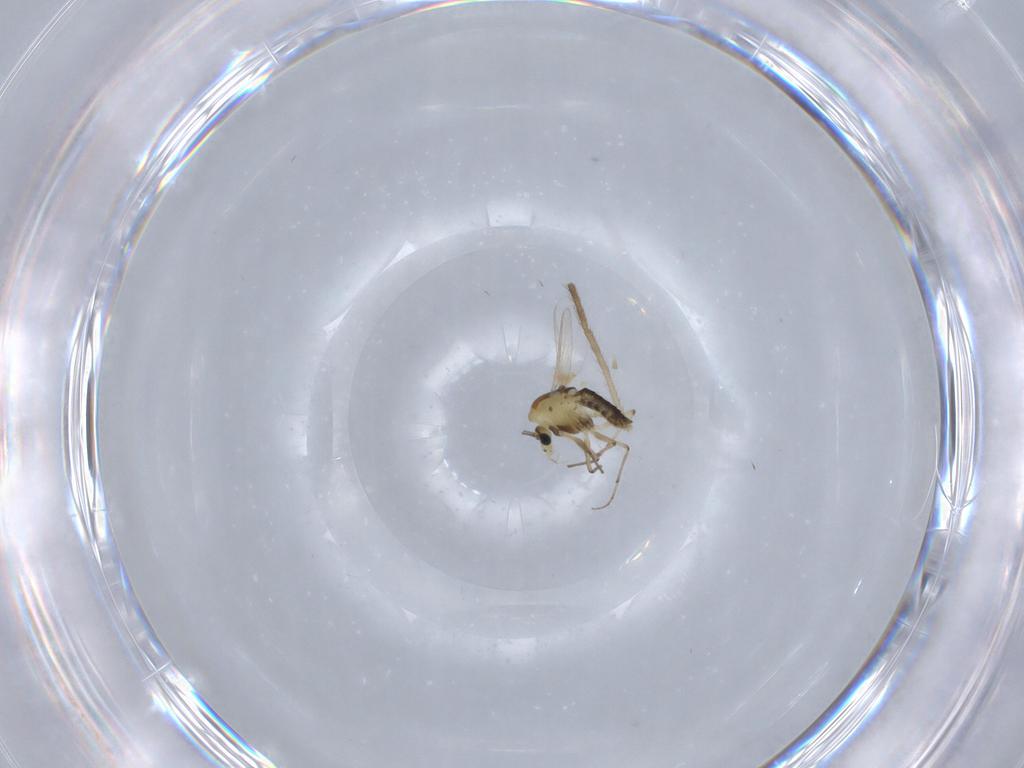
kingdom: Animalia
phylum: Arthropoda
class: Insecta
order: Diptera
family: Chironomidae
